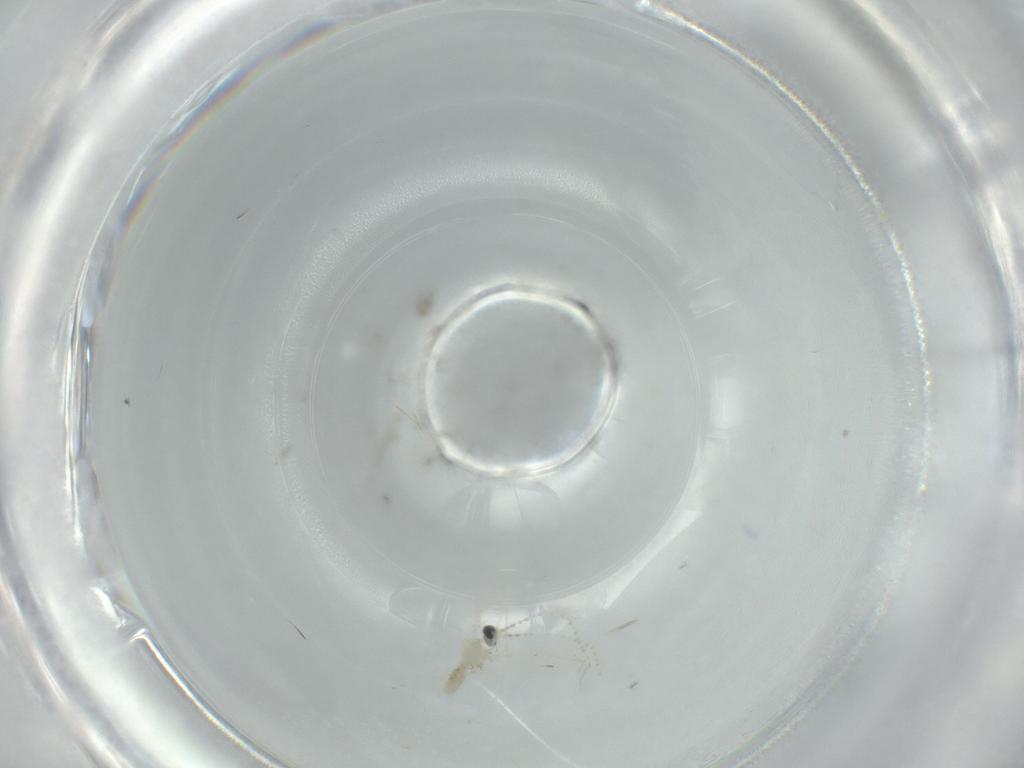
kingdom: Animalia
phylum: Arthropoda
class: Insecta
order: Diptera
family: Cecidomyiidae
